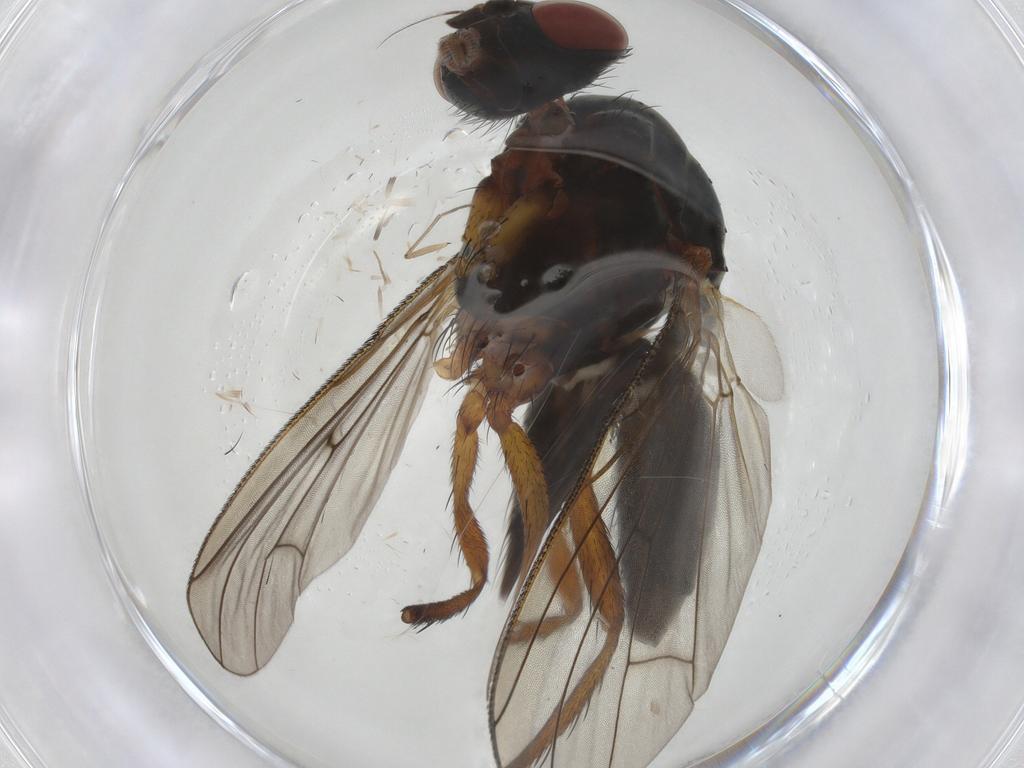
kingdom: Animalia
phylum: Arthropoda
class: Insecta
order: Diptera
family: Anthomyiidae
